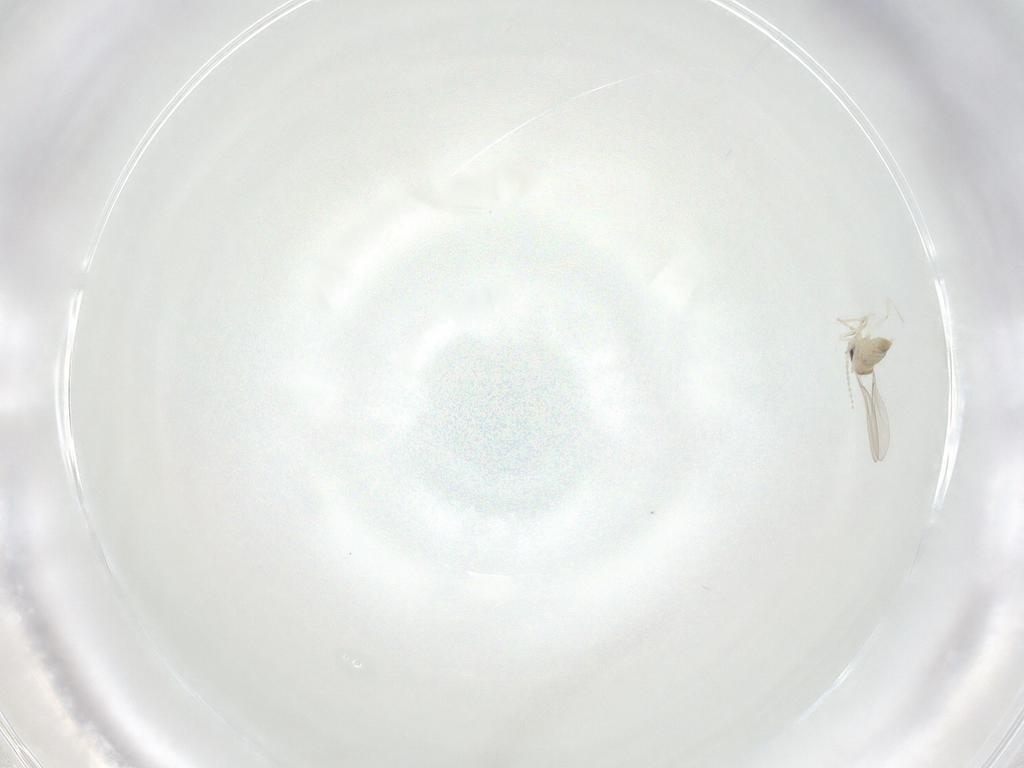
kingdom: Animalia
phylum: Arthropoda
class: Insecta
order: Diptera
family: Cecidomyiidae
